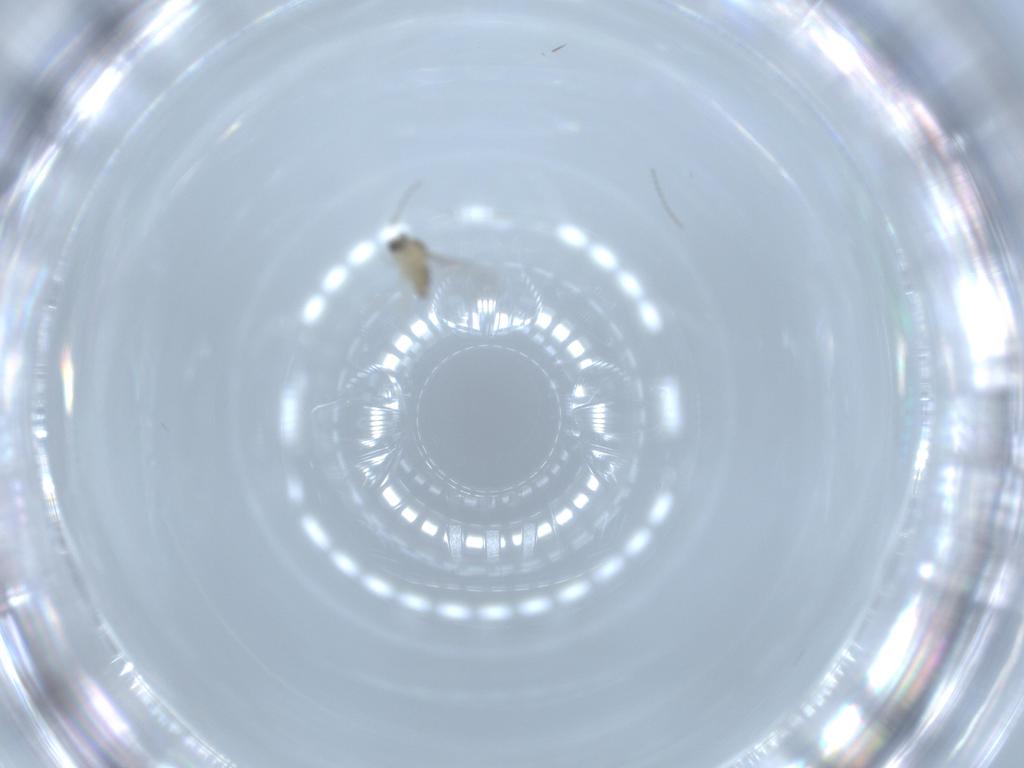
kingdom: Animalia
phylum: Arthropoda
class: Insecta
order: Diptera
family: Cecidomyiidae
